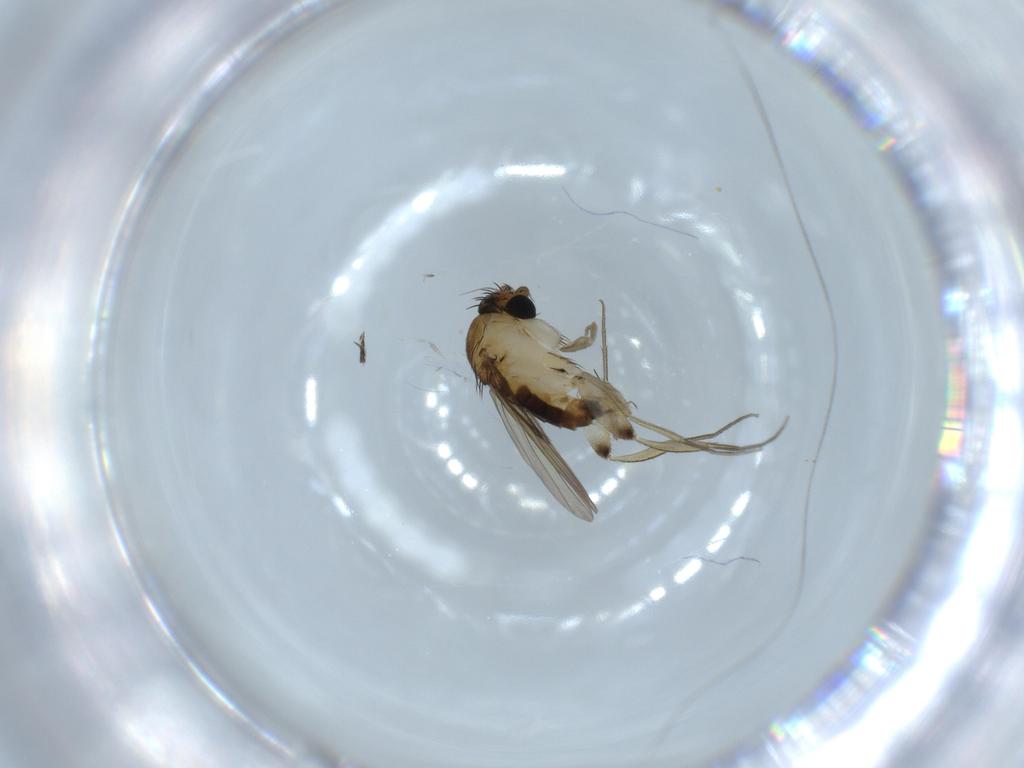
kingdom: Animalia
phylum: Arthropoda
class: Insecta
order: Diptera
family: Phoridae
